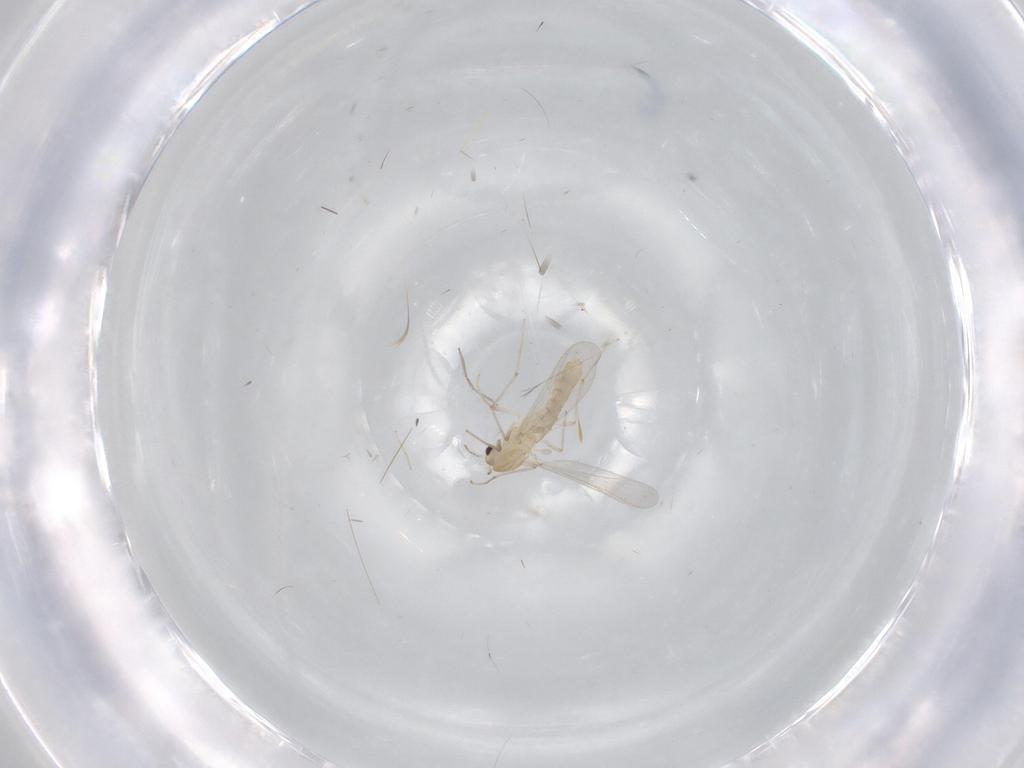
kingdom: Animalia
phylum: Arthropoda
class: Insecta
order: Diptera
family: Chironomidae
